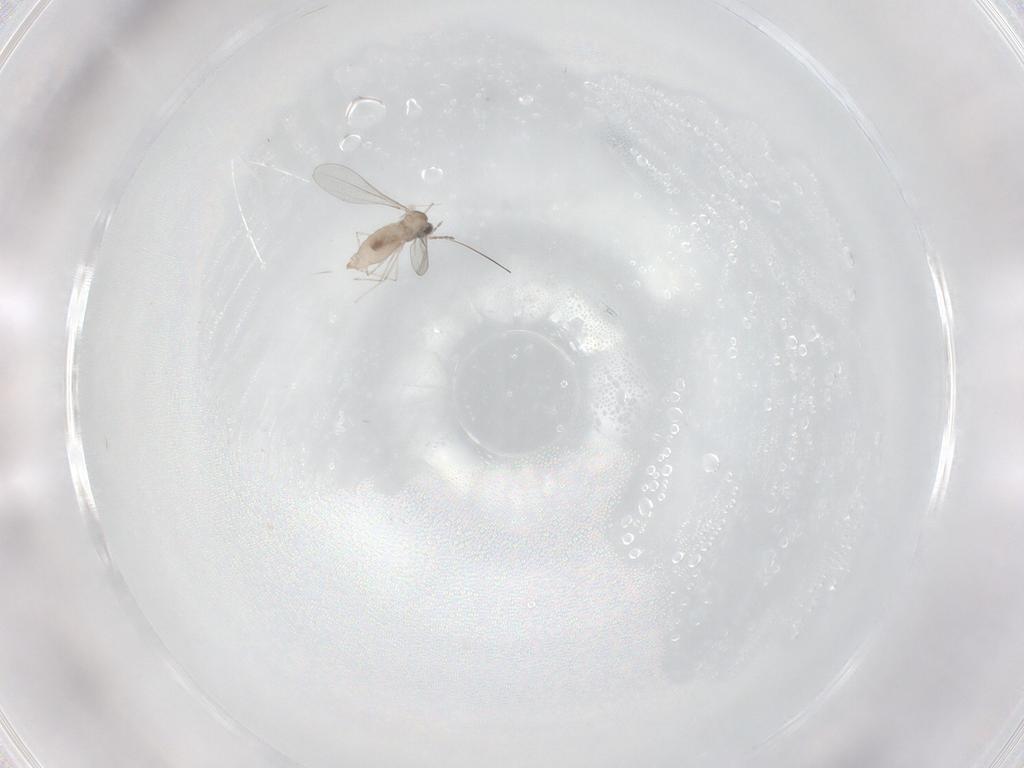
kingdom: Animalia
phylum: Arthropoda
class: Insecta
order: Diptera
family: Cecidomyiidae
